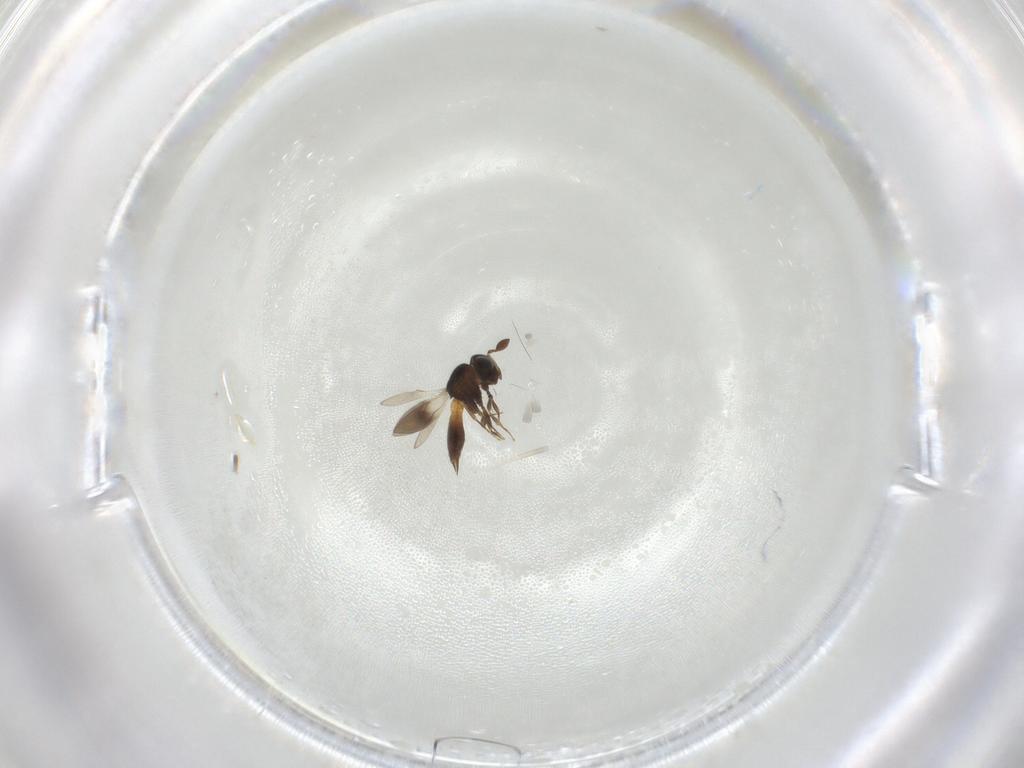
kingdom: Animalia
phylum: Arthropoda
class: Insecta
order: Hymenoptera
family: Scelionidae
